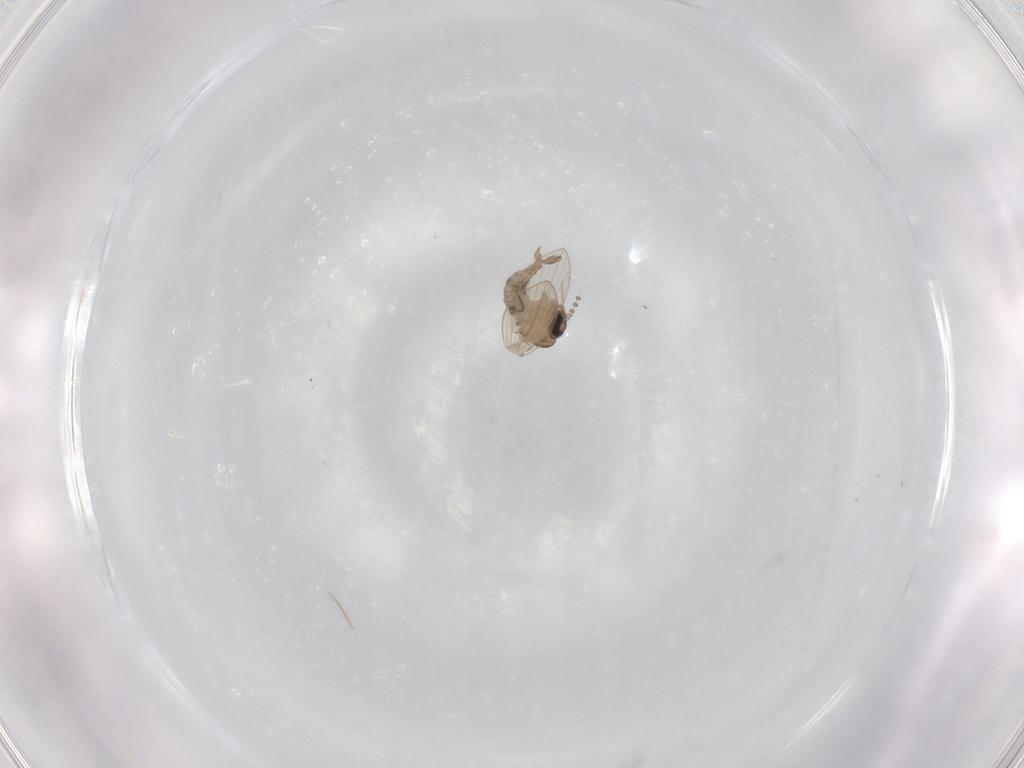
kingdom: Animalia
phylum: Arthropoda
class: Insecta
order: Diptera
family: Psychodidae
